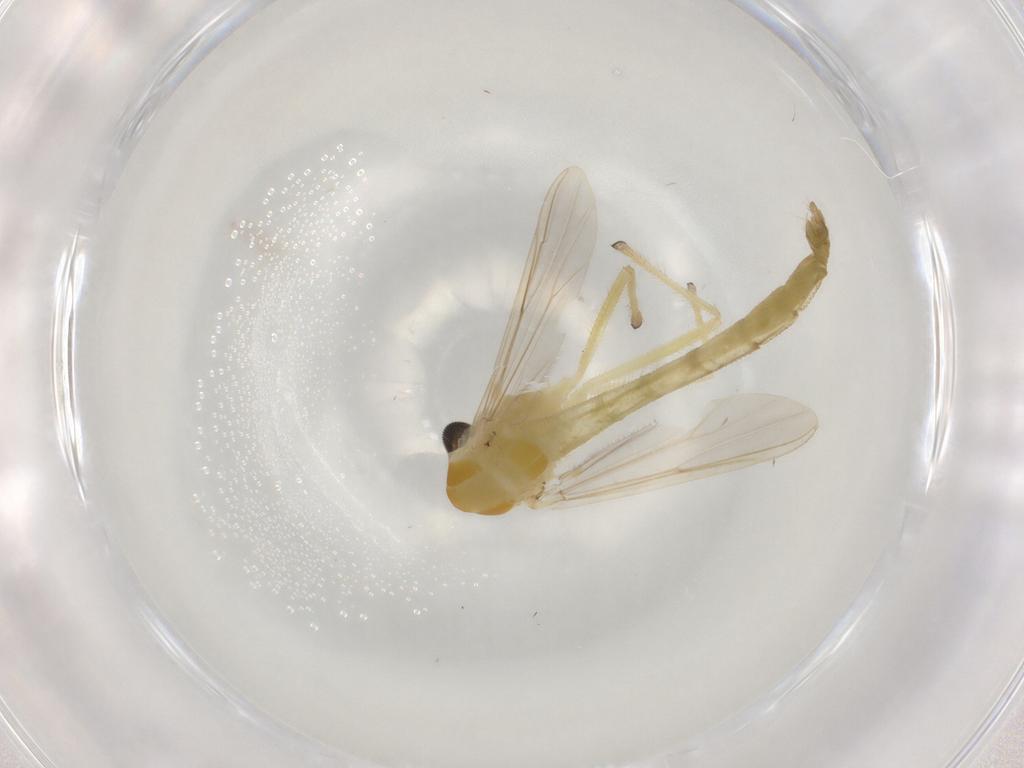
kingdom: Animalia
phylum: Arthropoda
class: Insecta
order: Diptera
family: Chironomidae
